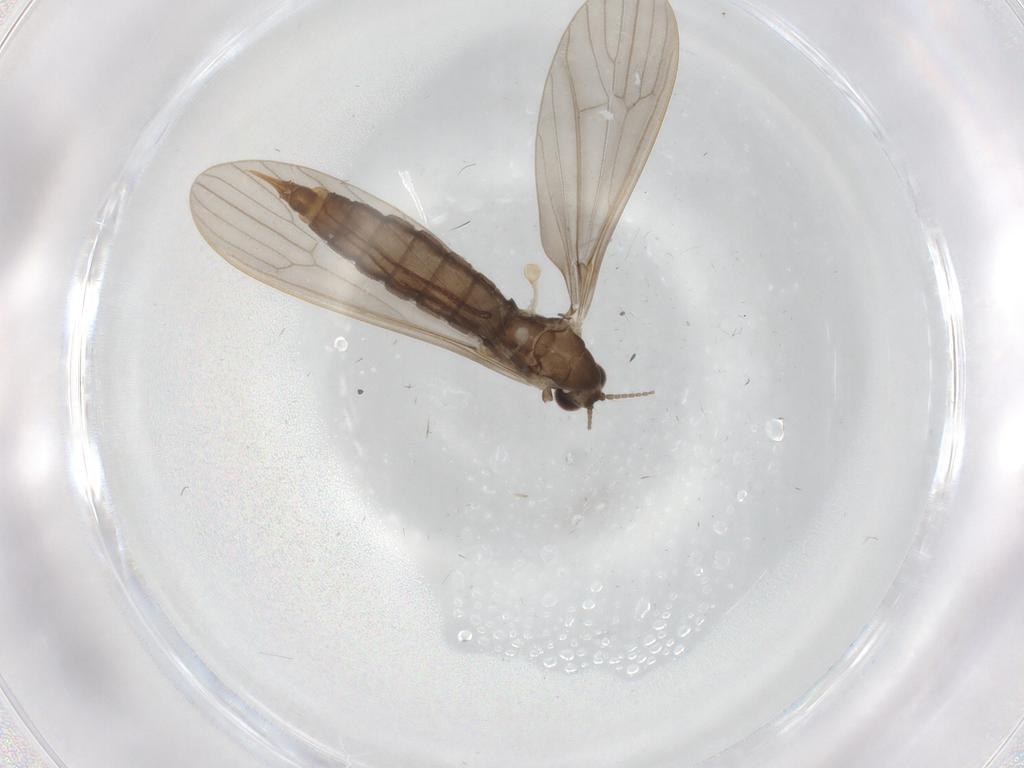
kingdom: Animalia
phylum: Arthropoda
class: Insecta
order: Diptera
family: Limoniidae
